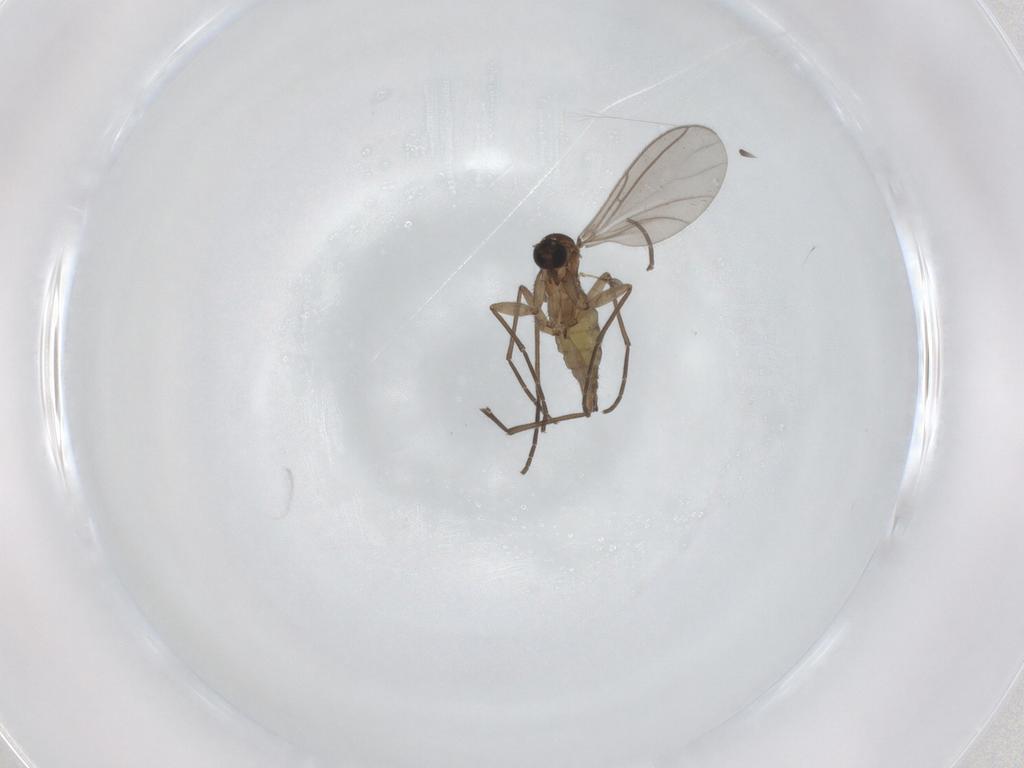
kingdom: Animalia
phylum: Arthropoda
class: Insecta
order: Diptera
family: Cecidomyiidae
